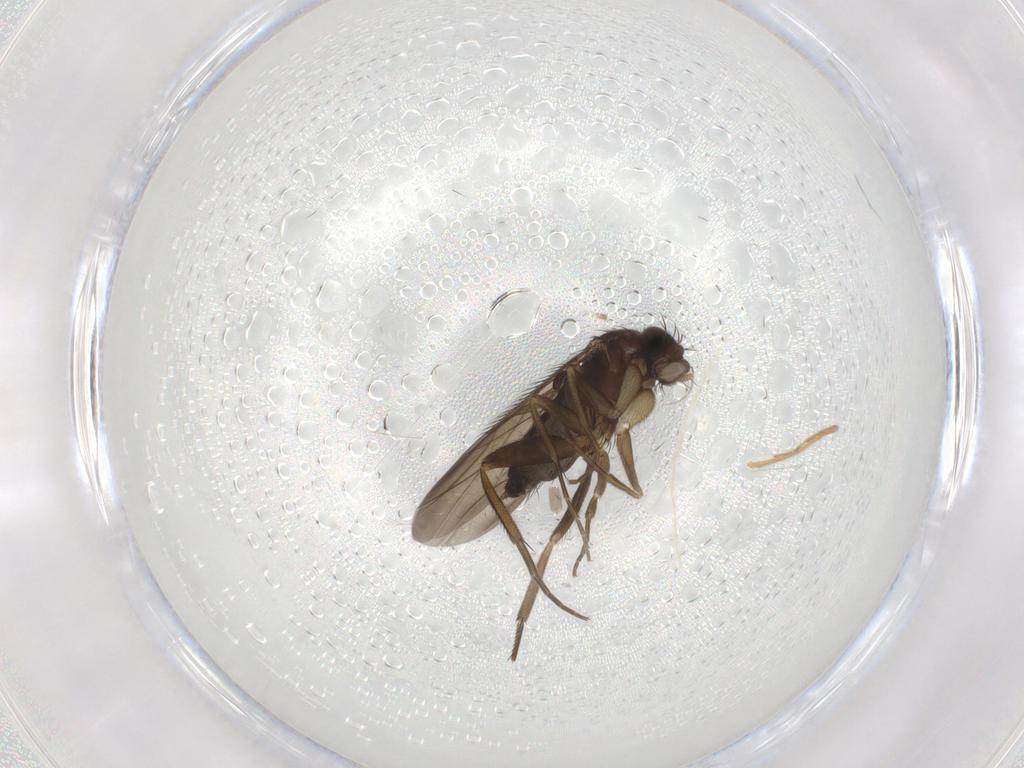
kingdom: Animalia
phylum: Arthropoda
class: Insecta
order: Diptera
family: Phoridae
